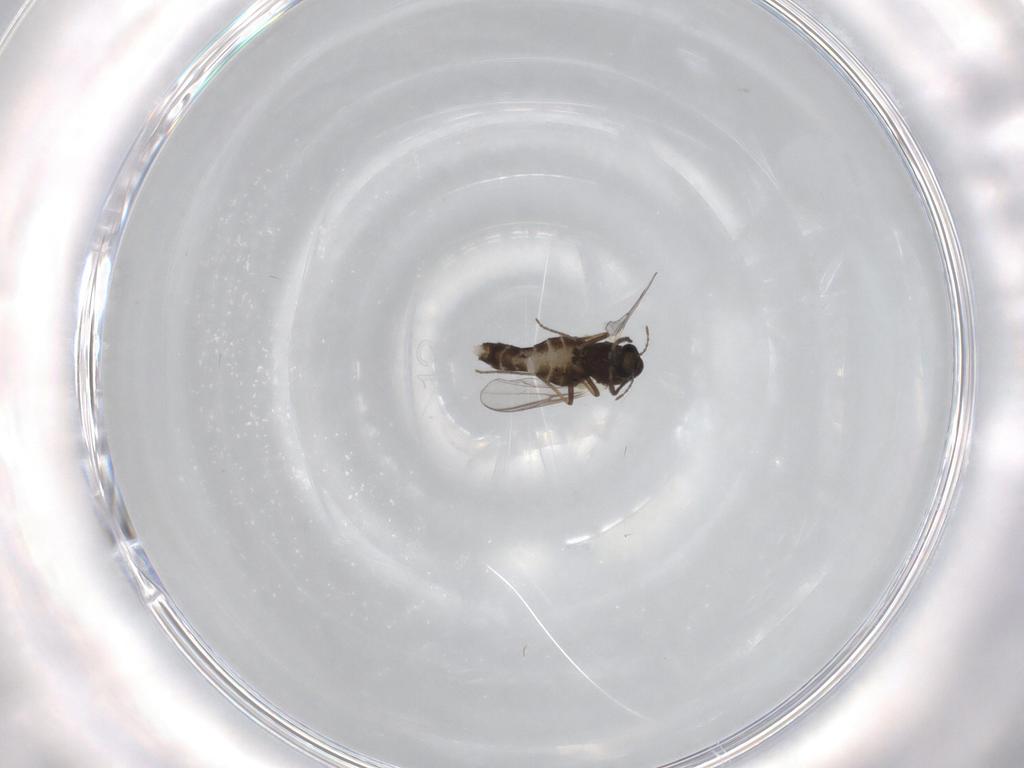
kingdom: Animalia
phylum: Arthropoda
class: Insecta
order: Diptera
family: Chironomidae
